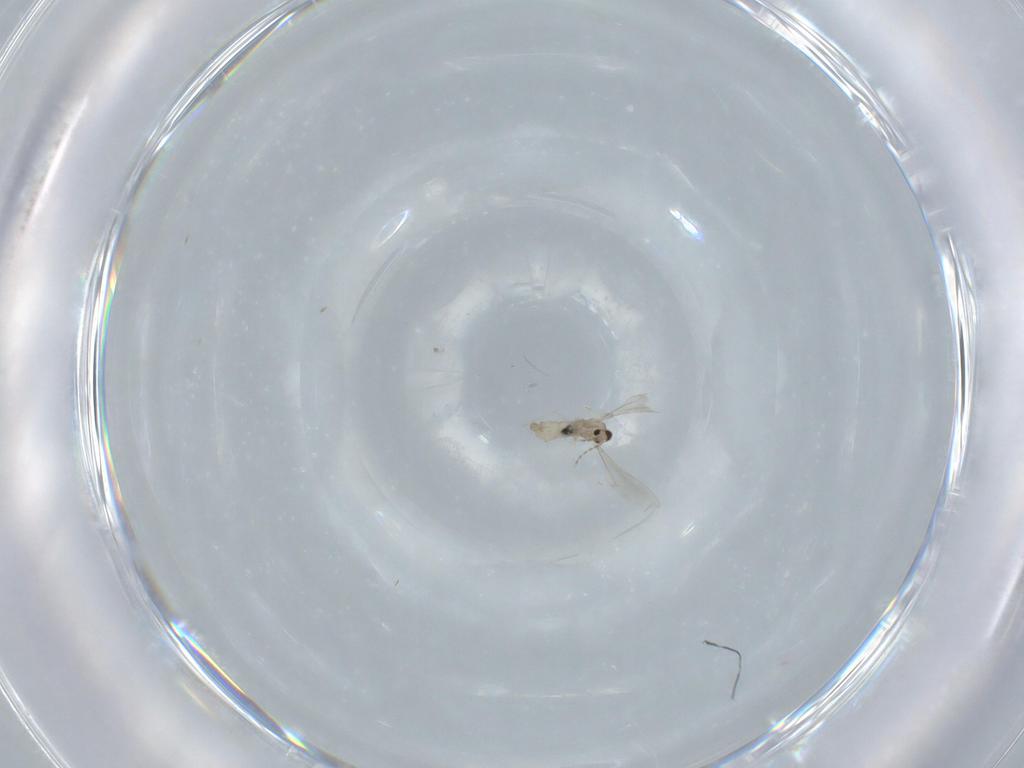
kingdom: Animalia
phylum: Arthropoda
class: Insecta
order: Diptera
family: Cecidomyiidae
